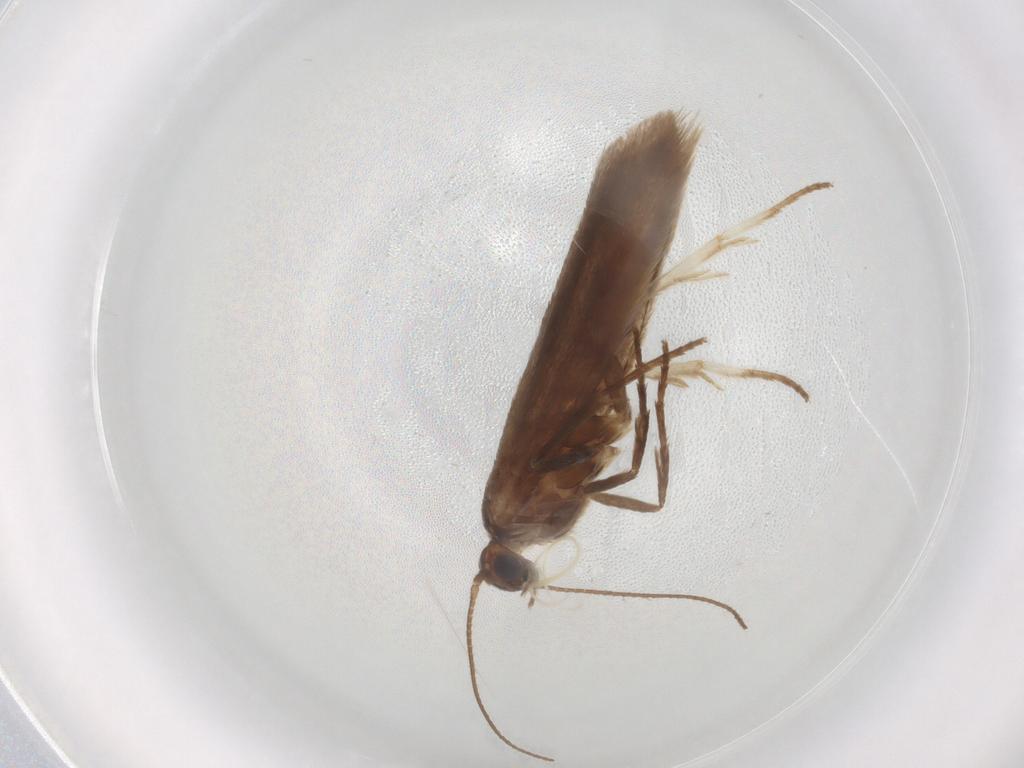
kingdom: Animalia
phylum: Arthropoda
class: Insecta
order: Lepidoptera
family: Limacodidae
